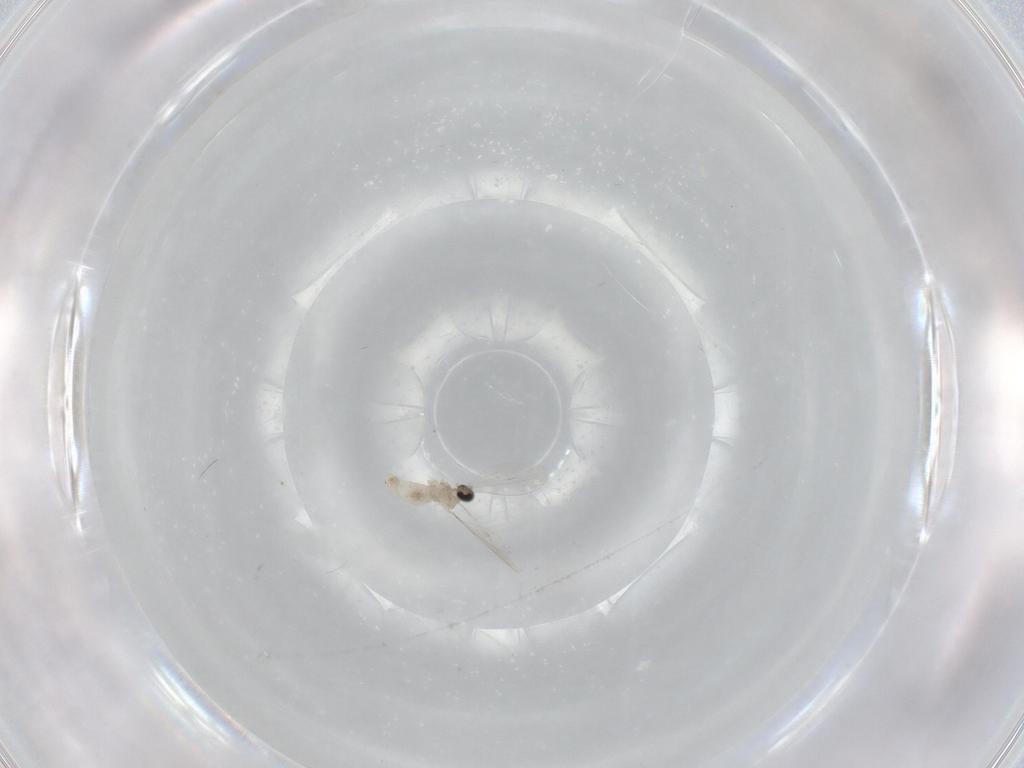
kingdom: Animalia
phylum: Arthropoda
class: Insecta
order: Diptera
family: Cecidomyiidae
